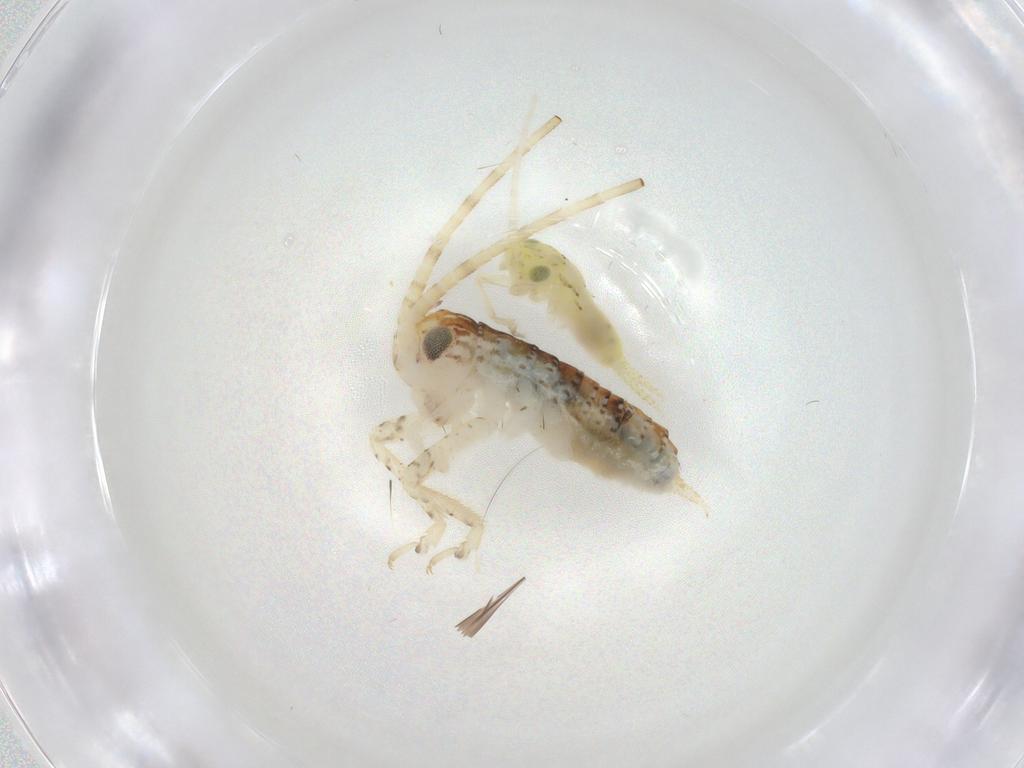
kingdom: Animalia
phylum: Arthropoda
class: Insecta
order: Orthoptera
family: Gryllidae
